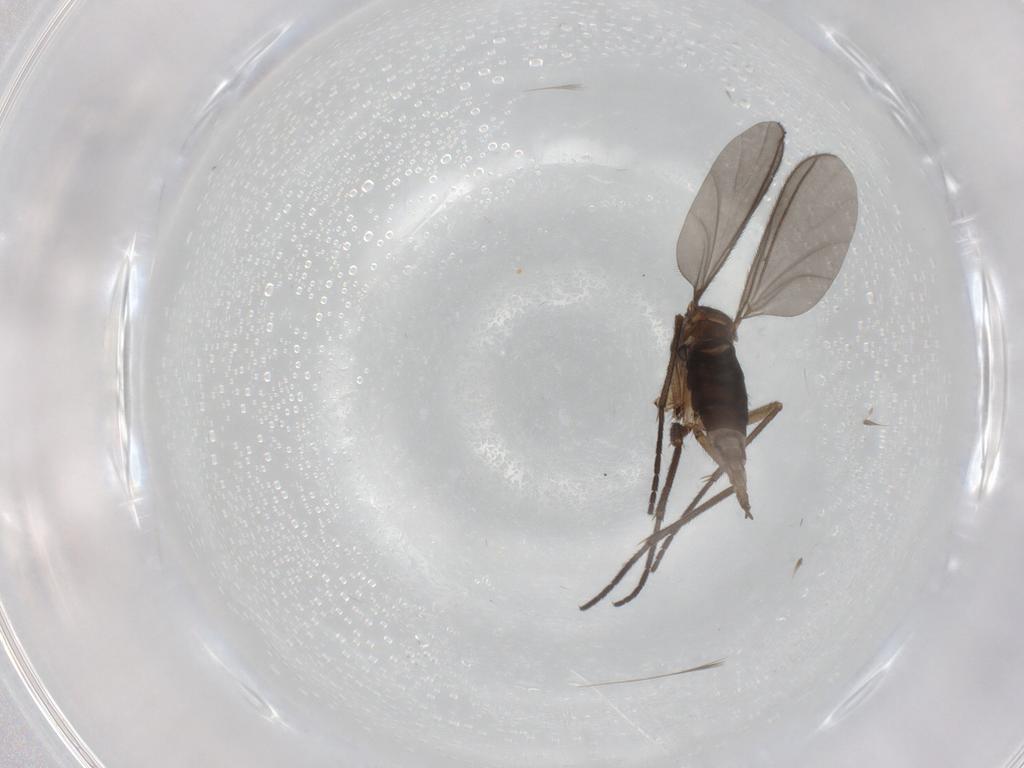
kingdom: Animalia
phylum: Arthropoda
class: Insecta
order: Diptera
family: Sciaridae
